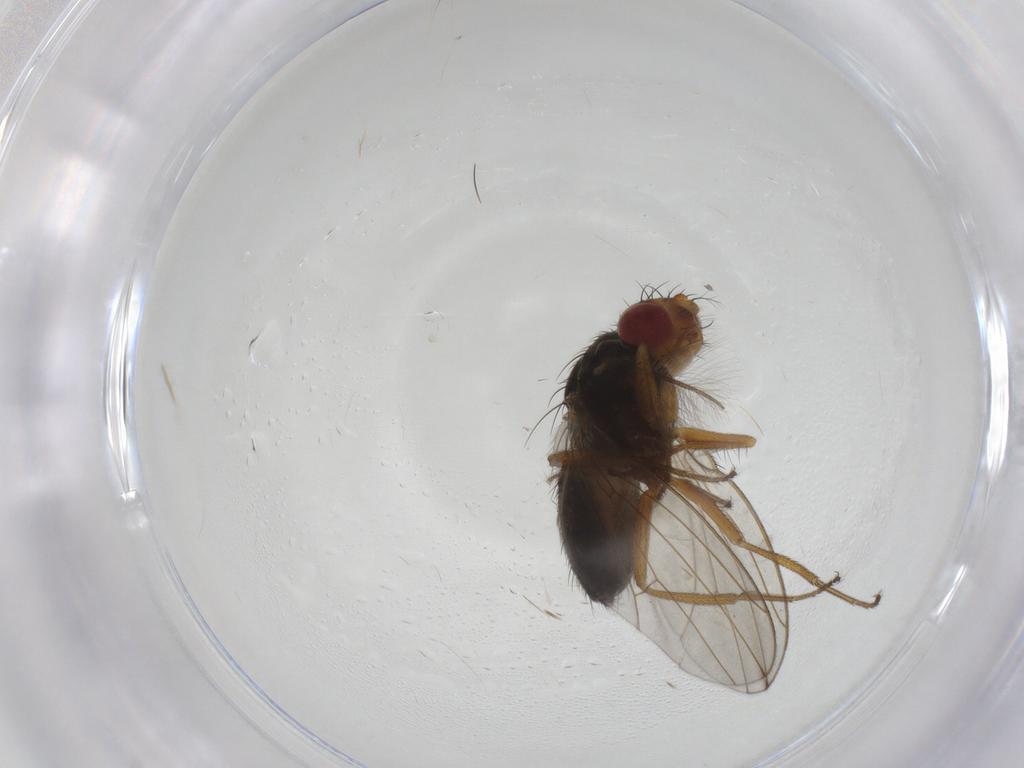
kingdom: Animalia
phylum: Arthropoda
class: Insecta
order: Diptera
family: Drosophilidae
